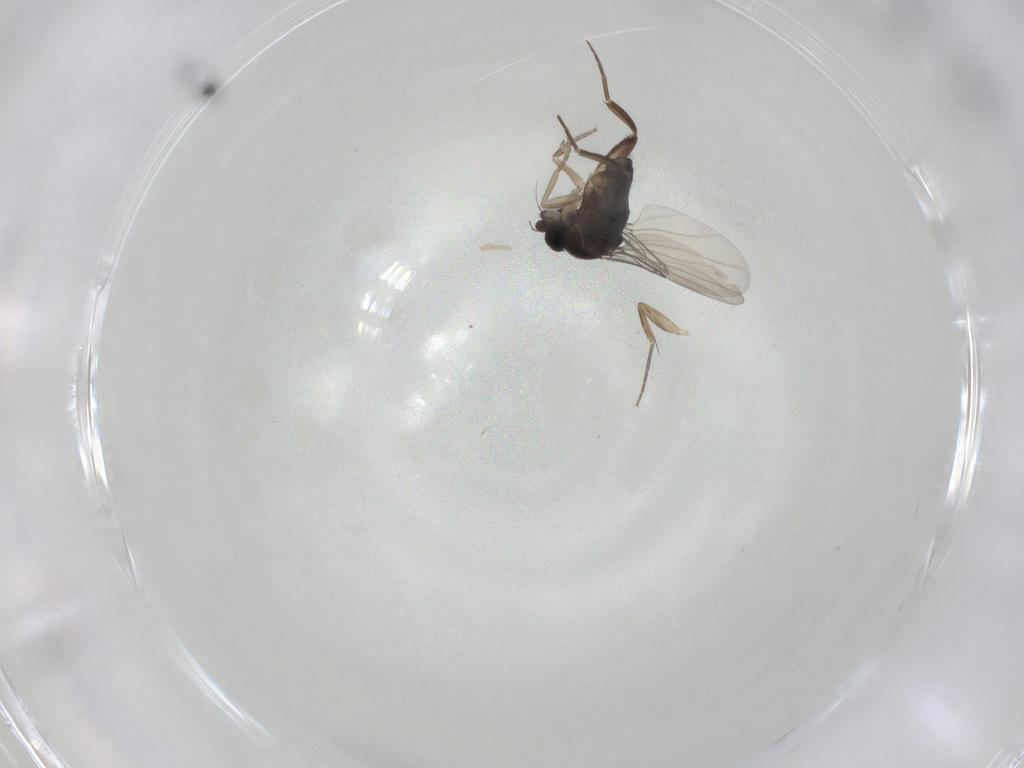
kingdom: Animalia
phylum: Arthropoda
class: Insecta
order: Diptera
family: Phoridae
